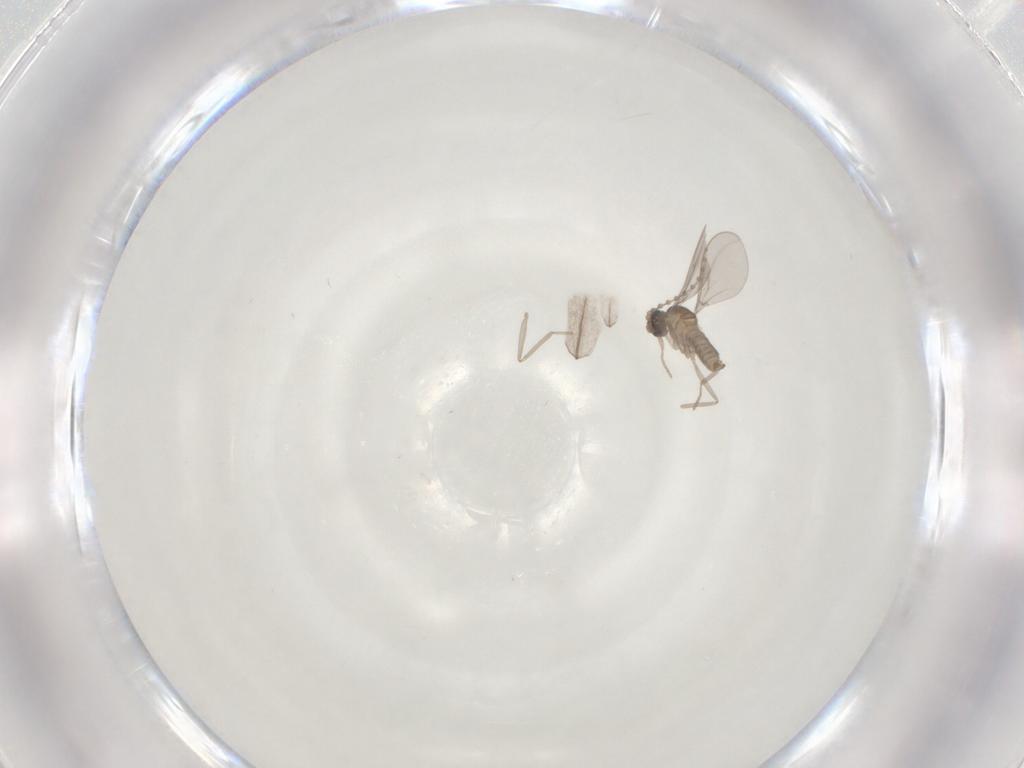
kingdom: Animalia
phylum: Arthropoda
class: Insecta
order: Diptera
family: Cecidomyiidae
